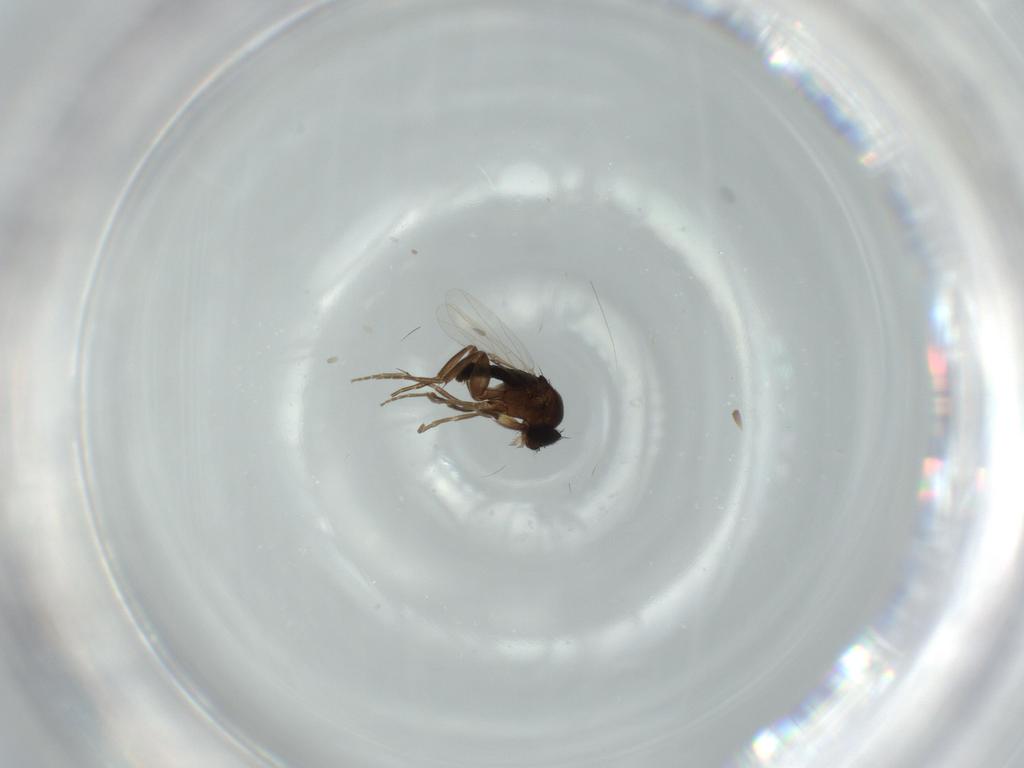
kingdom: Animalia
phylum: Arthropoda
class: Insecta
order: Diptera
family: Phoridae
